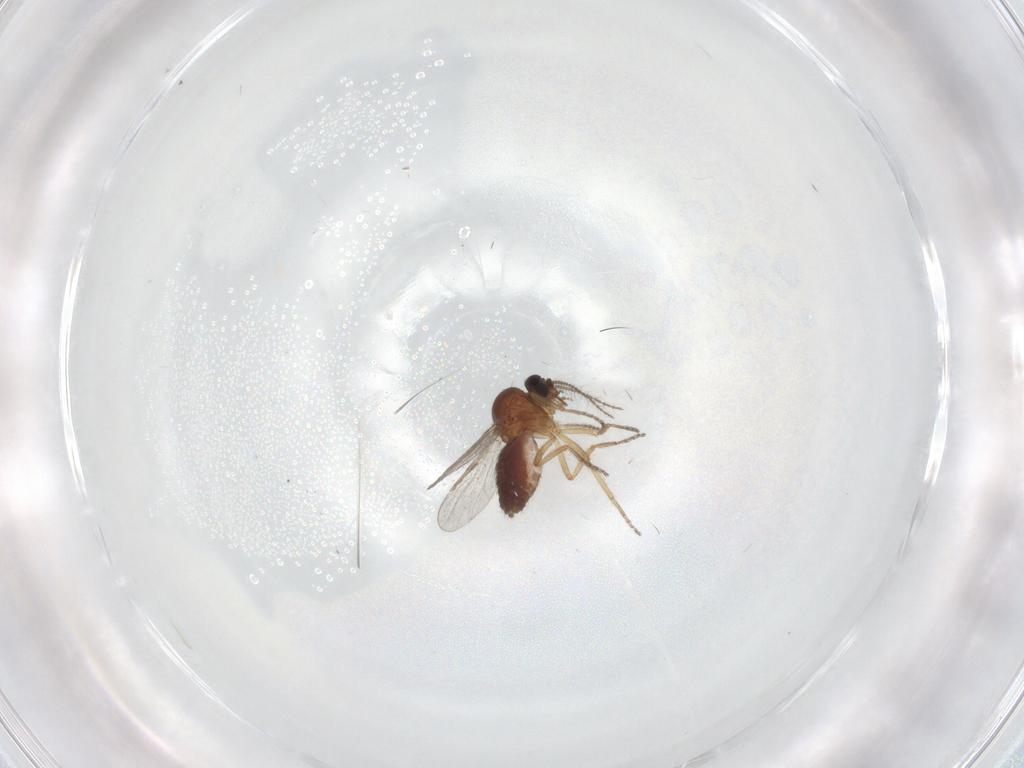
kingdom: Animalia
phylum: Arthropoda
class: Insecta
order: Diptera
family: Ceratopogonidae
